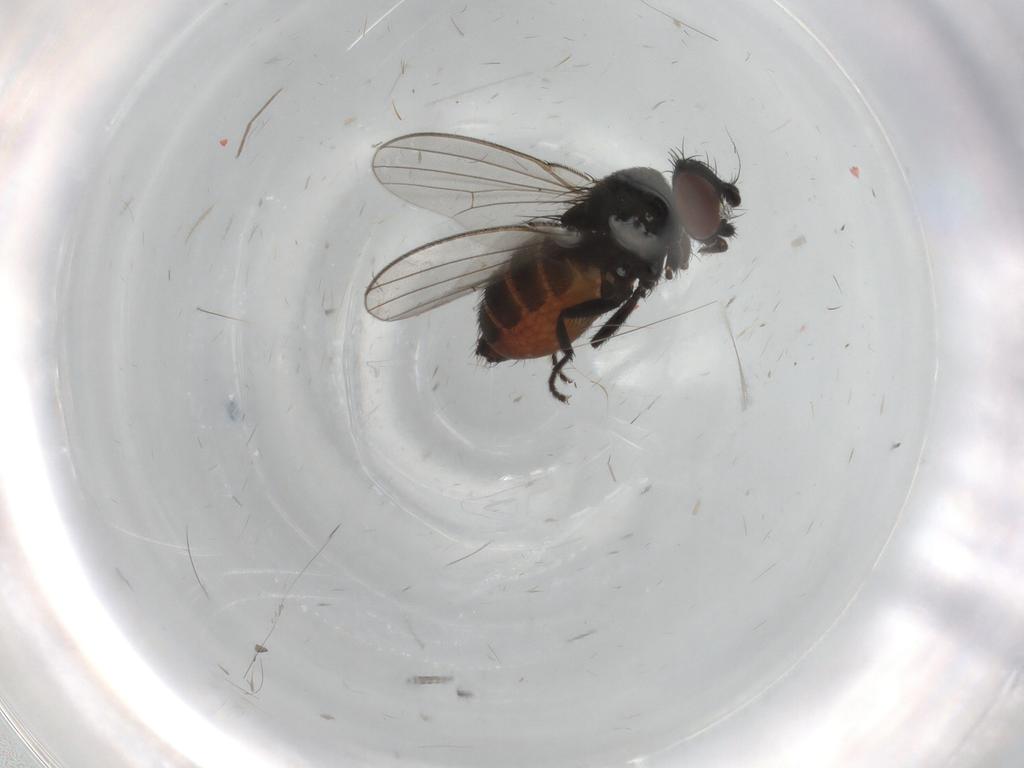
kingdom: Animalia
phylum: Arthropoda
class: Insecta
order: Diptera
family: Milichiidae
